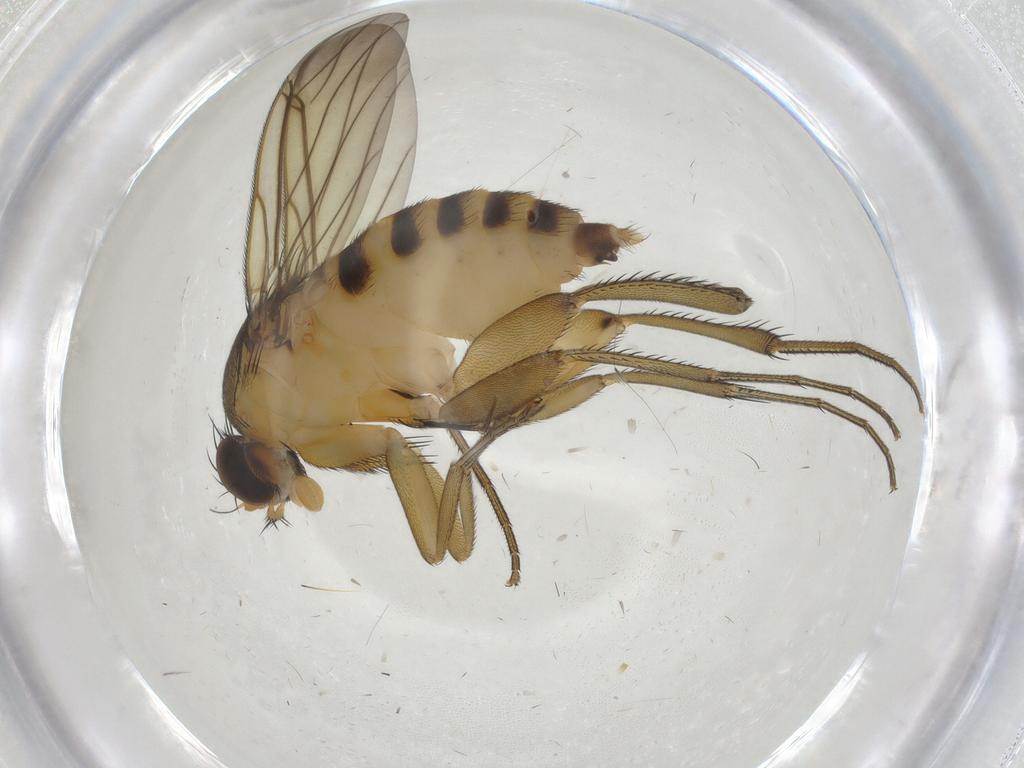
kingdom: Animalia
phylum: Arthropoda
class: Insecta
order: Diptera
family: Phoridae
